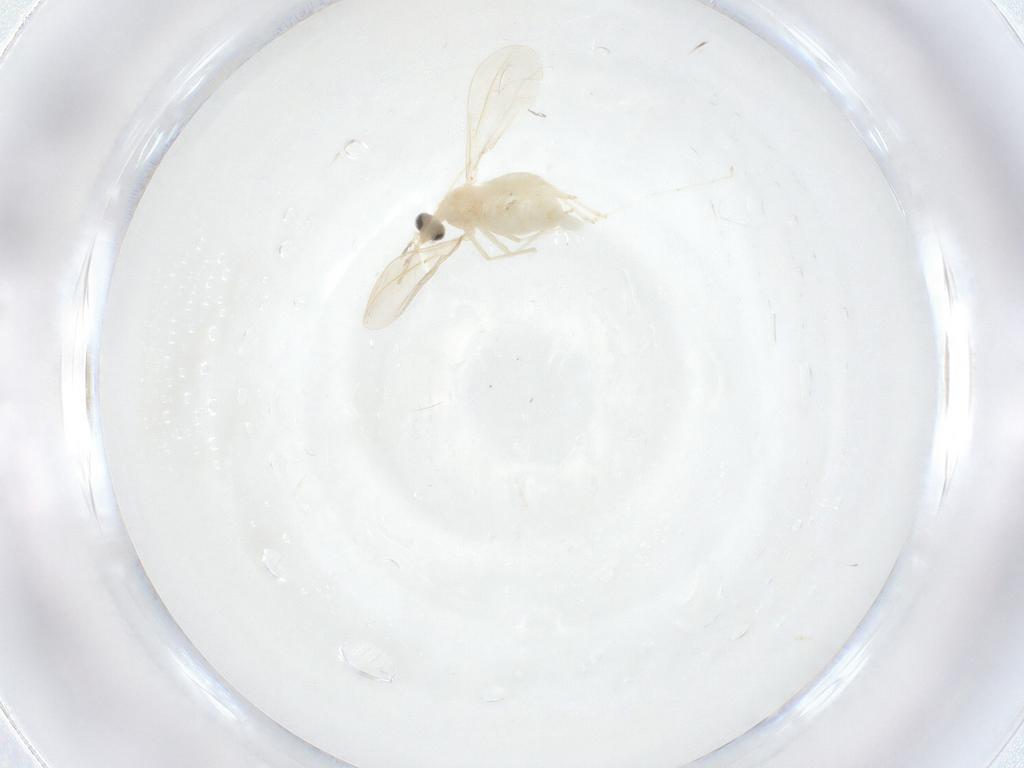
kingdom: Animalia
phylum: Arthropoda
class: Insecta
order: Diptera
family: Cecidomyiidae
